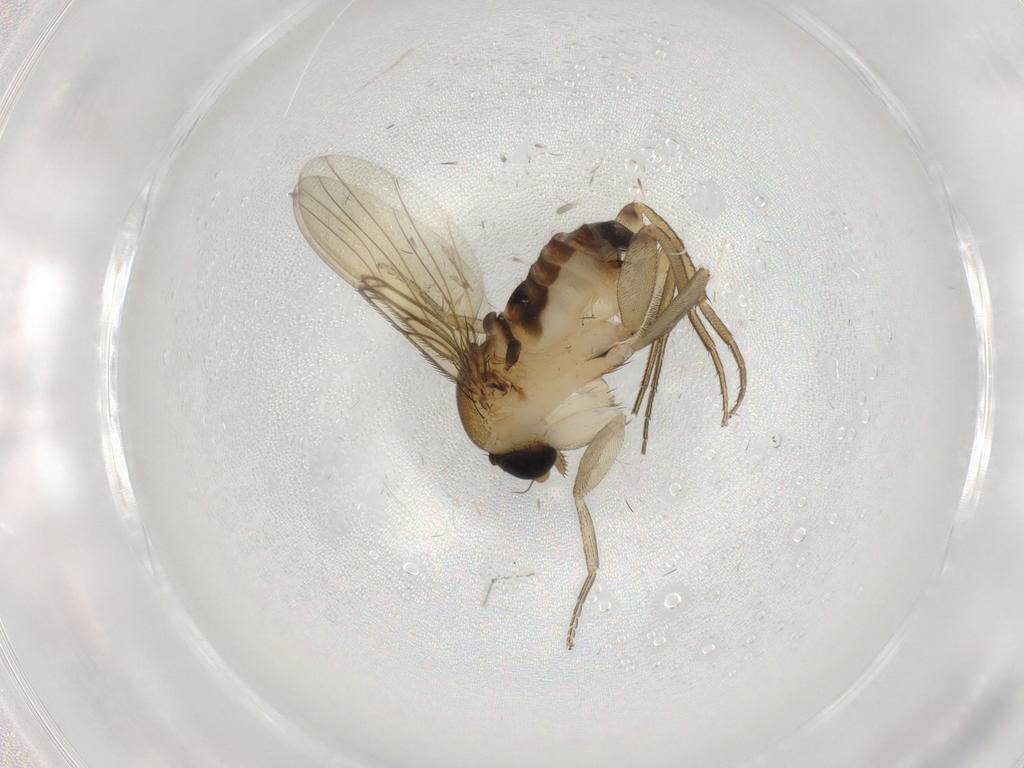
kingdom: Animalia
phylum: Arthropoda
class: Insecta
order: Diptera
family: Phoridae
